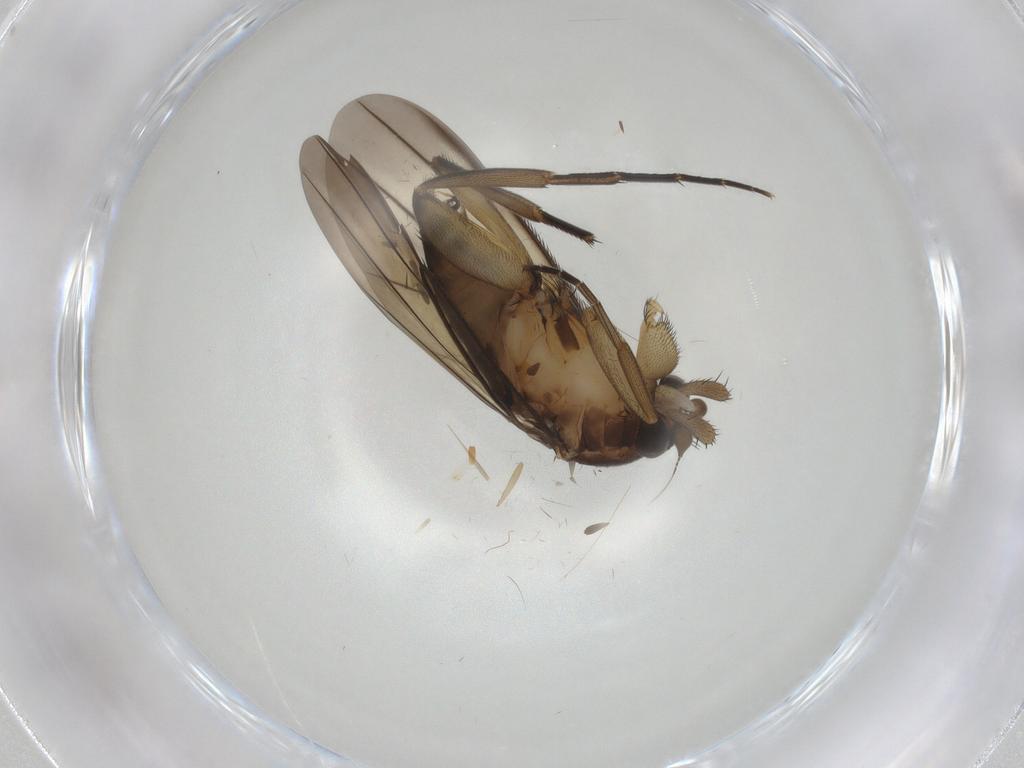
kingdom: Animalia
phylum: Arthropoda
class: Insecta
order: Diptera
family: Phoridae
